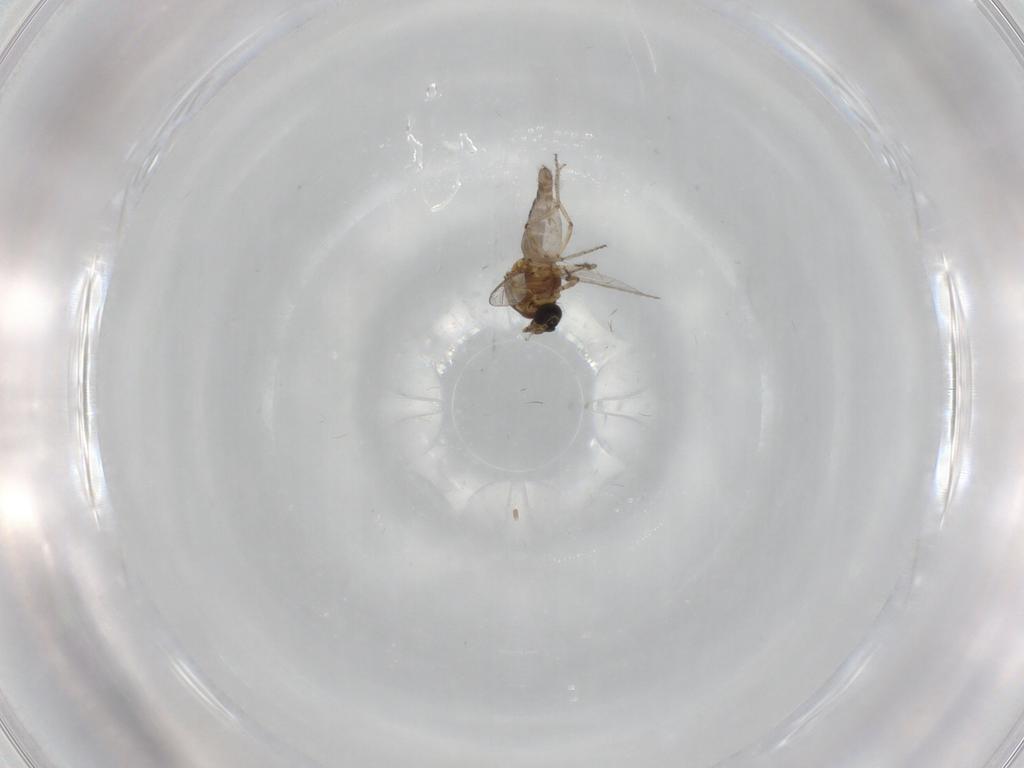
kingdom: Animalia
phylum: Arthropoda
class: Insecta
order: Diptera
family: Ceratopogonidae
